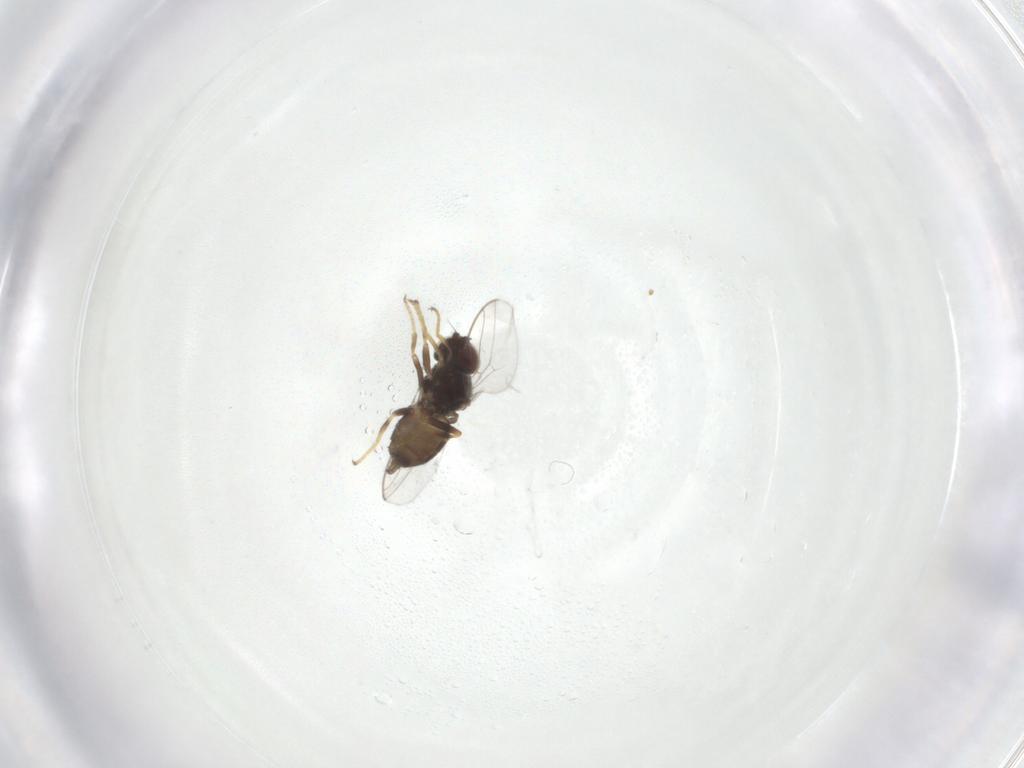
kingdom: Animalia
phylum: Arthropoda
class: Insecta
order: Diptera
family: Chloropidae
